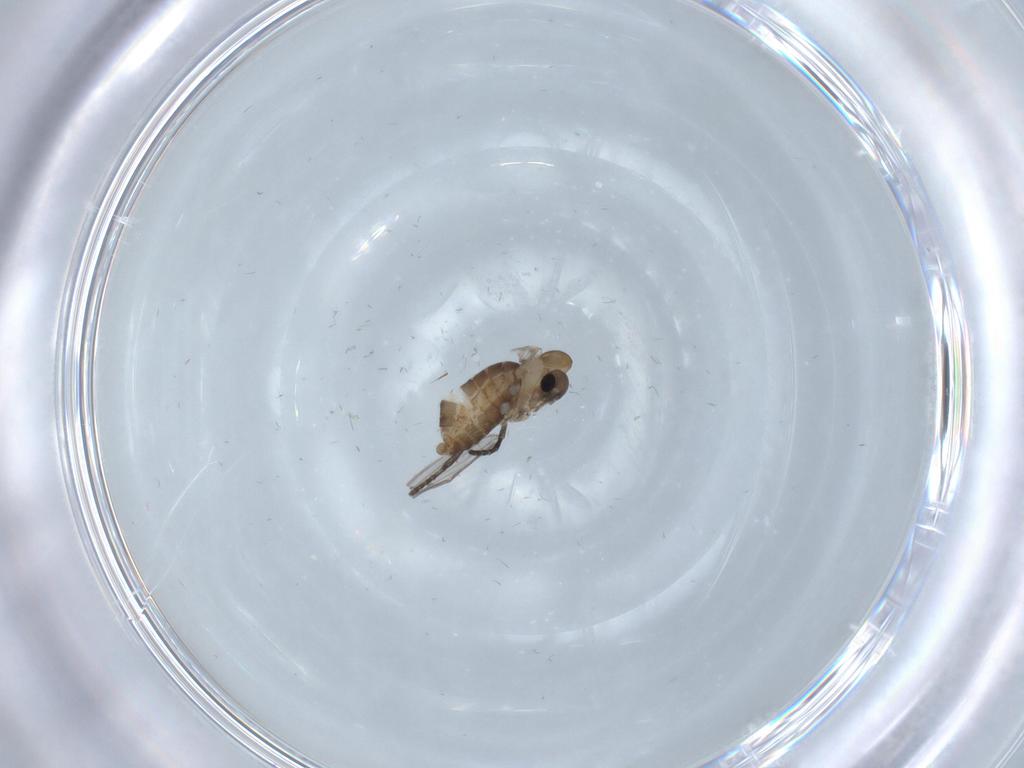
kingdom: Animalia
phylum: Arthropoda
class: Insecta
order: Diptera
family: Chironomidae
